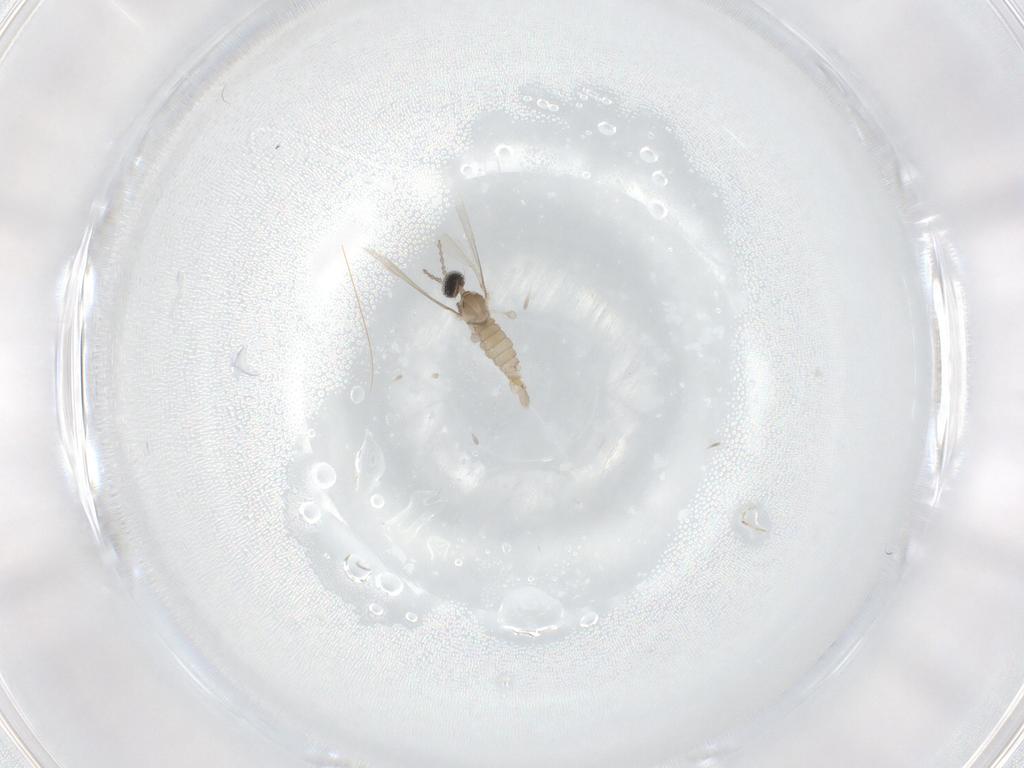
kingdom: Animalia
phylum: Arthropoda
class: Insecta
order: Diptera
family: Cecidomyiidae
